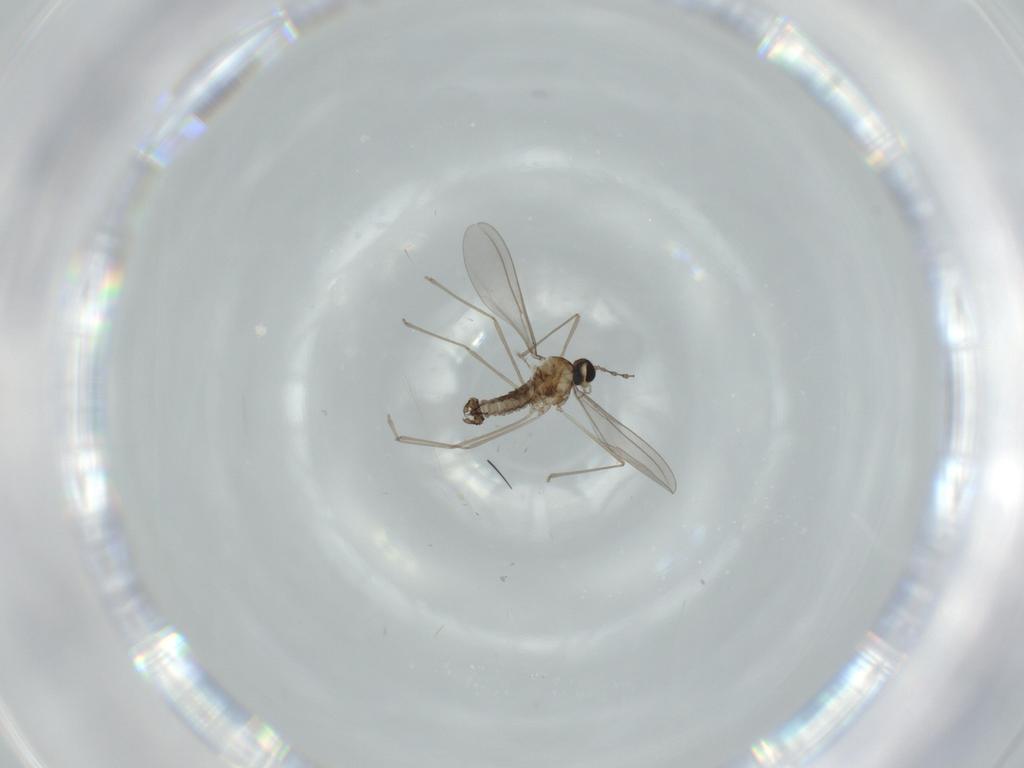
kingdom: Animalia
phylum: Arthropoda
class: Insecta
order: Diptera
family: Cecidomyiidae
